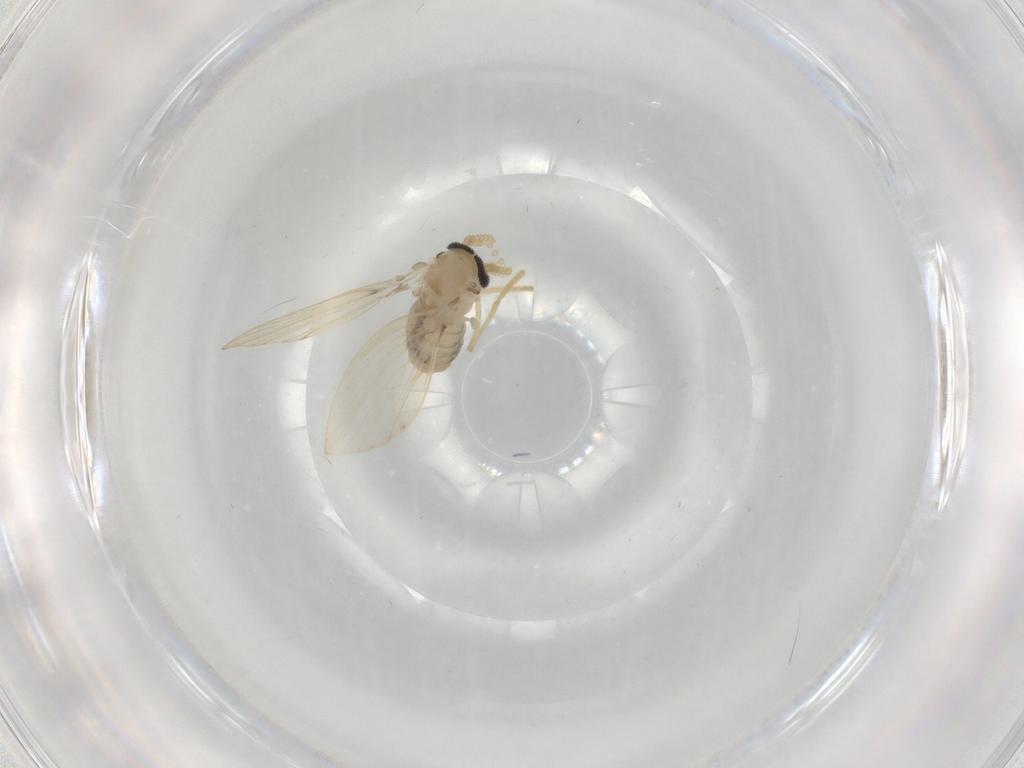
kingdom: Animalia
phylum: Arthropoda
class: Insecta
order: Diptera
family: Psychodidae
